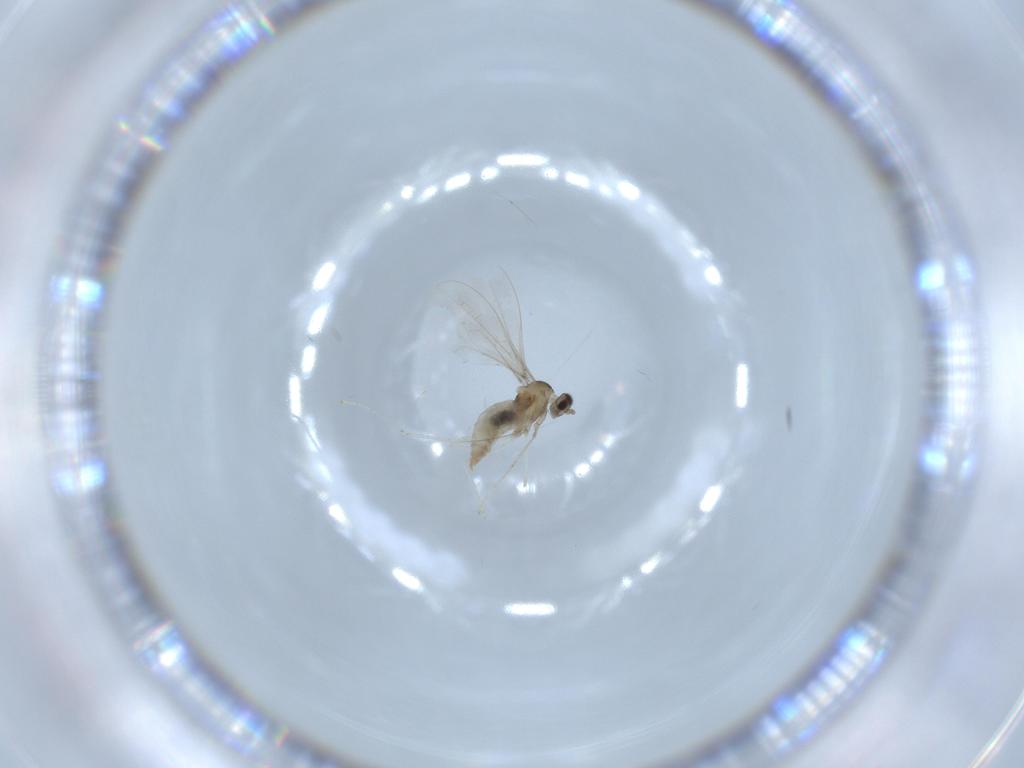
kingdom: Animalia
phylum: Arthropoda
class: Insecta
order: Diptera
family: Cecidomyiidae
